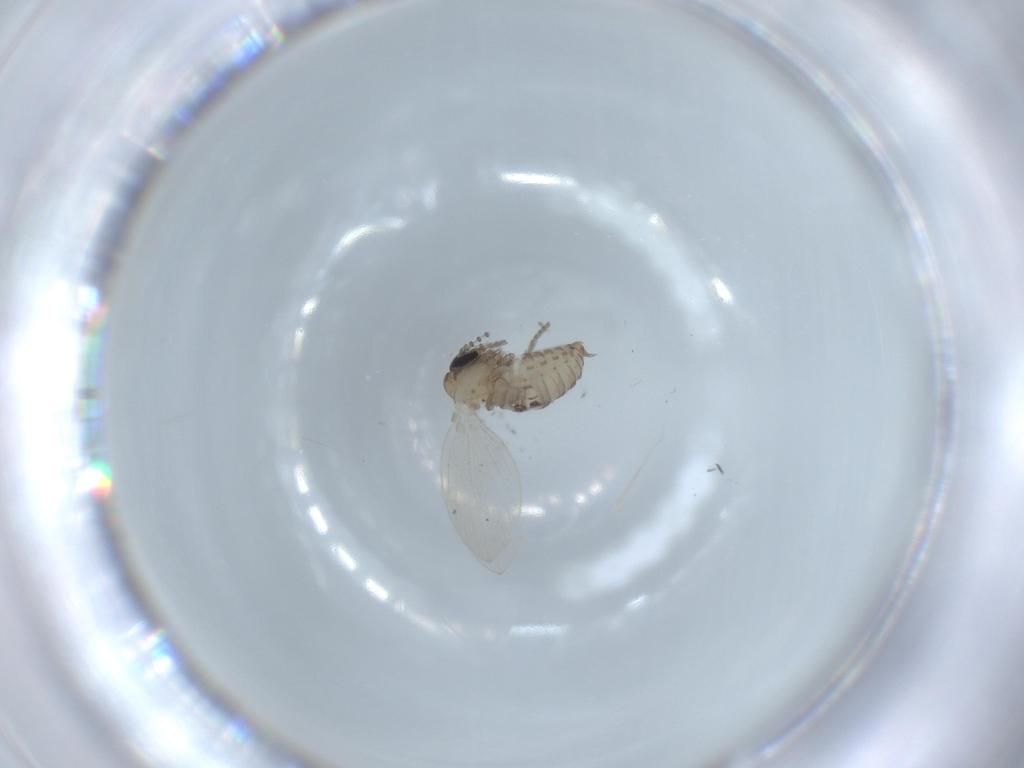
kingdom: Animalia
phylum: Arthropoda
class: Insecta
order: Diptera
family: Psychodidae
